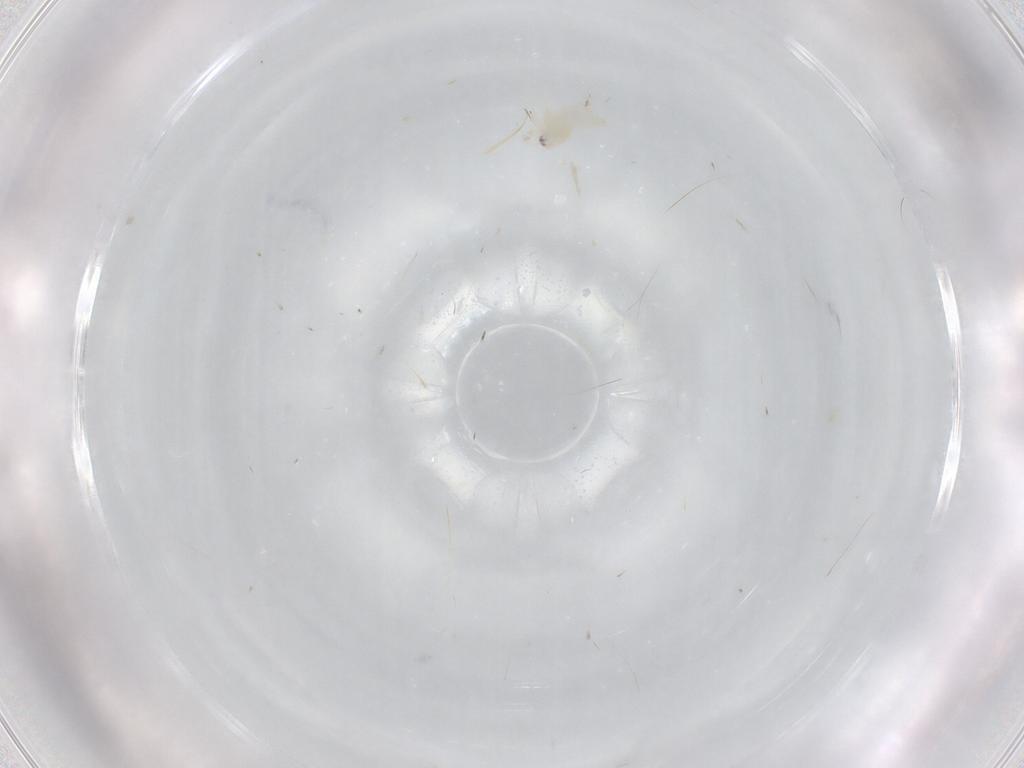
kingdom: Animalia
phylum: Arthropoda
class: Insecta
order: Hemiptera
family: Aleyrodidae
